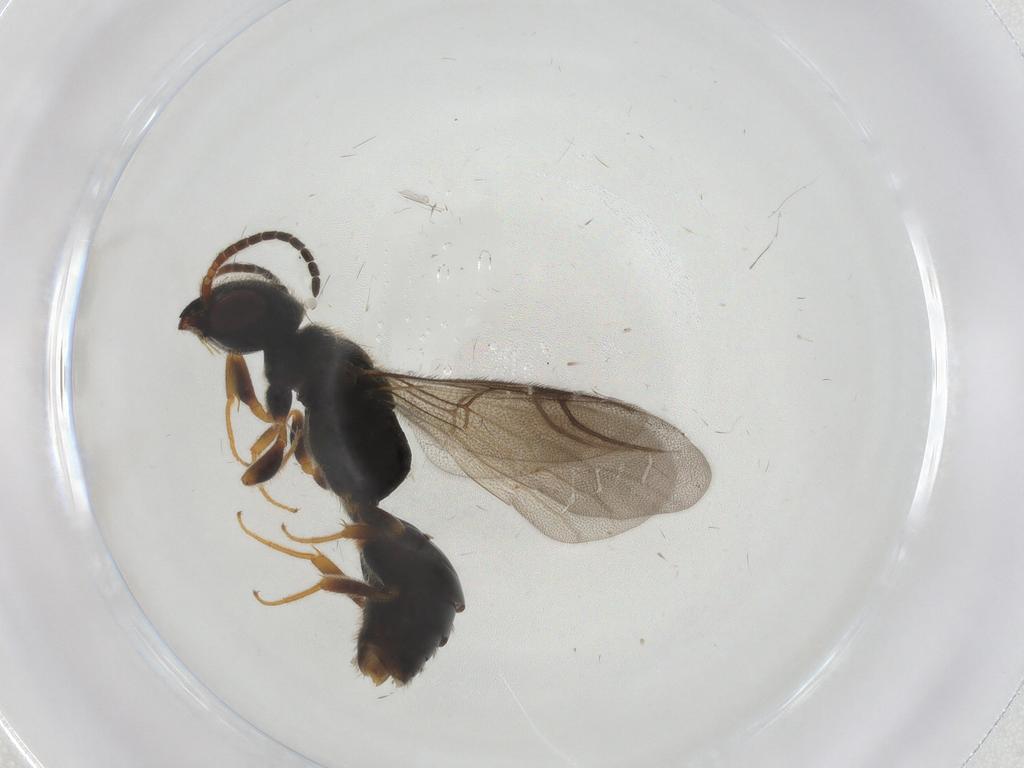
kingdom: Animalia
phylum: Arthropoda
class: Insecta
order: Hymenoptera
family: Bethylidae
